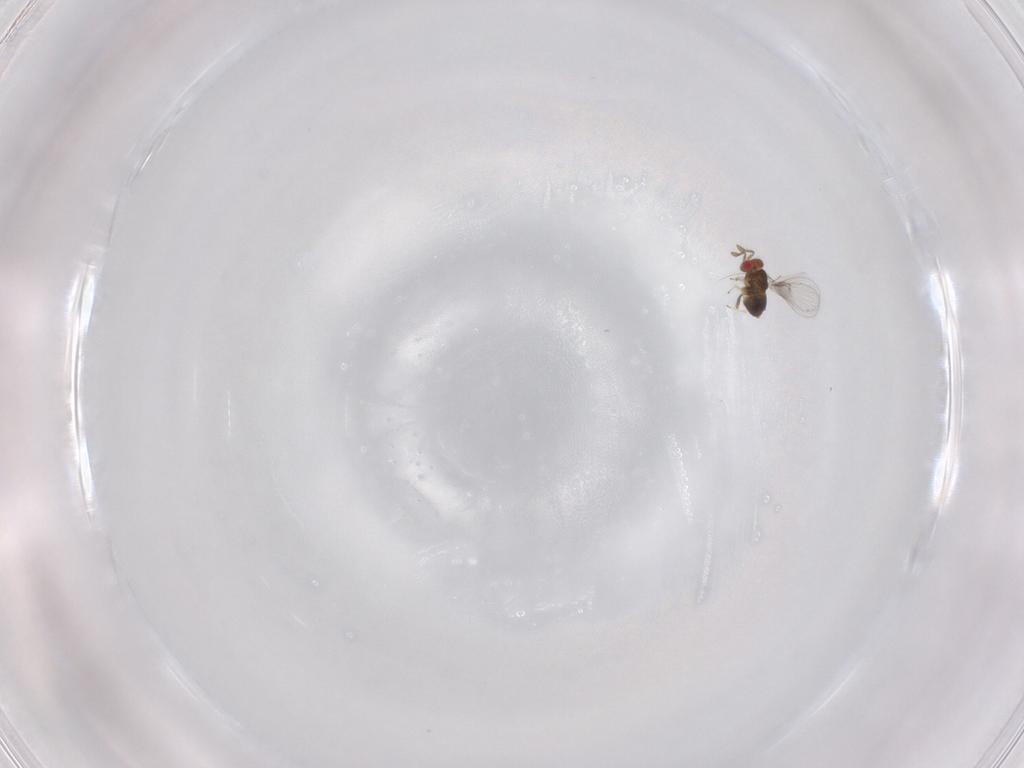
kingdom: Animalia
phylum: Arthropoda
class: Insecta
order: Hymenoptera
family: Trichogrammatidae
